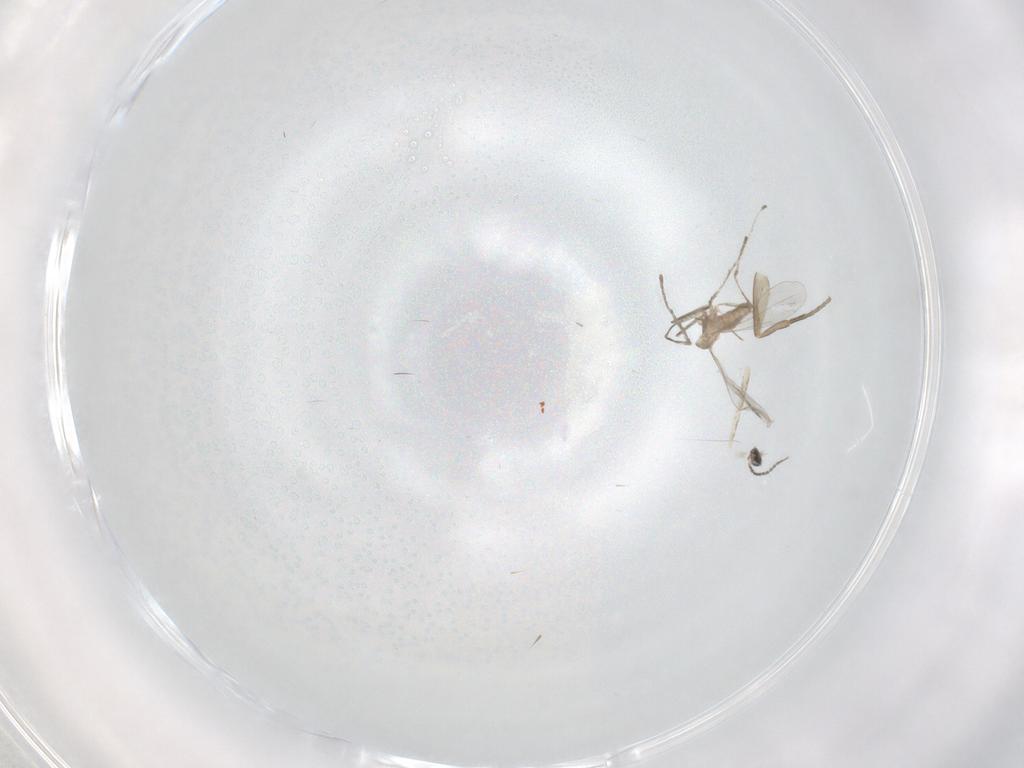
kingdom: Animalia
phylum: Arthropoda
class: Insecta
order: Diptera
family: Cecidomyiidae
